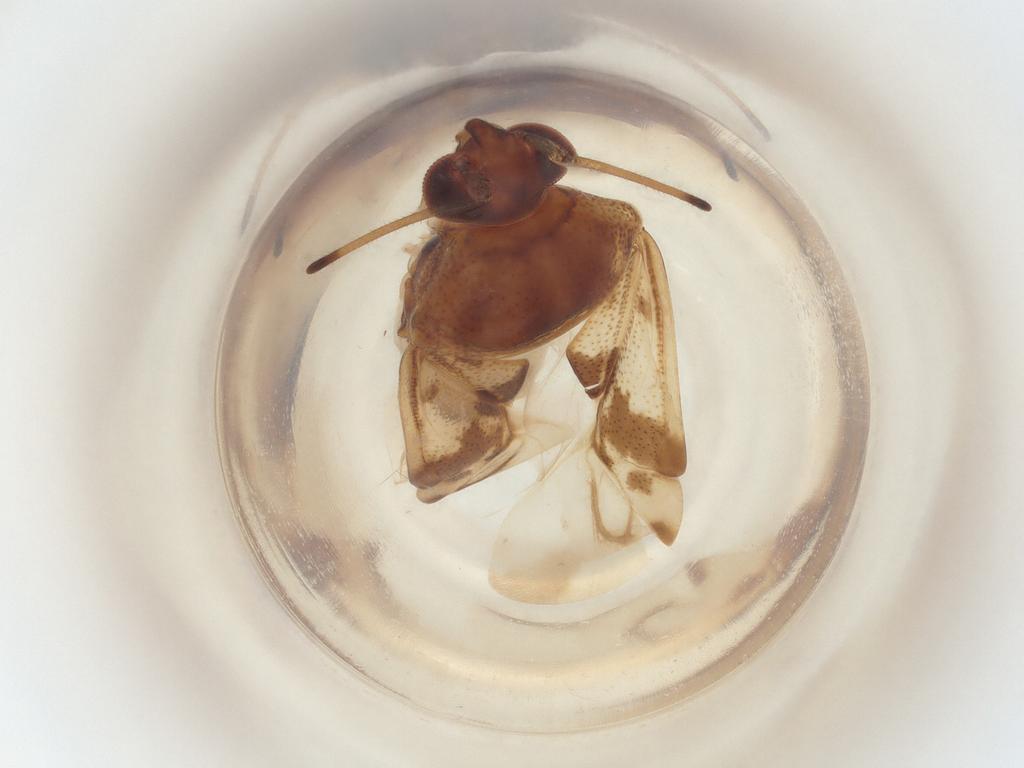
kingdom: Animalia
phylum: Arthropoda
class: Insecta
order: Hemiptera
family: Miridae
